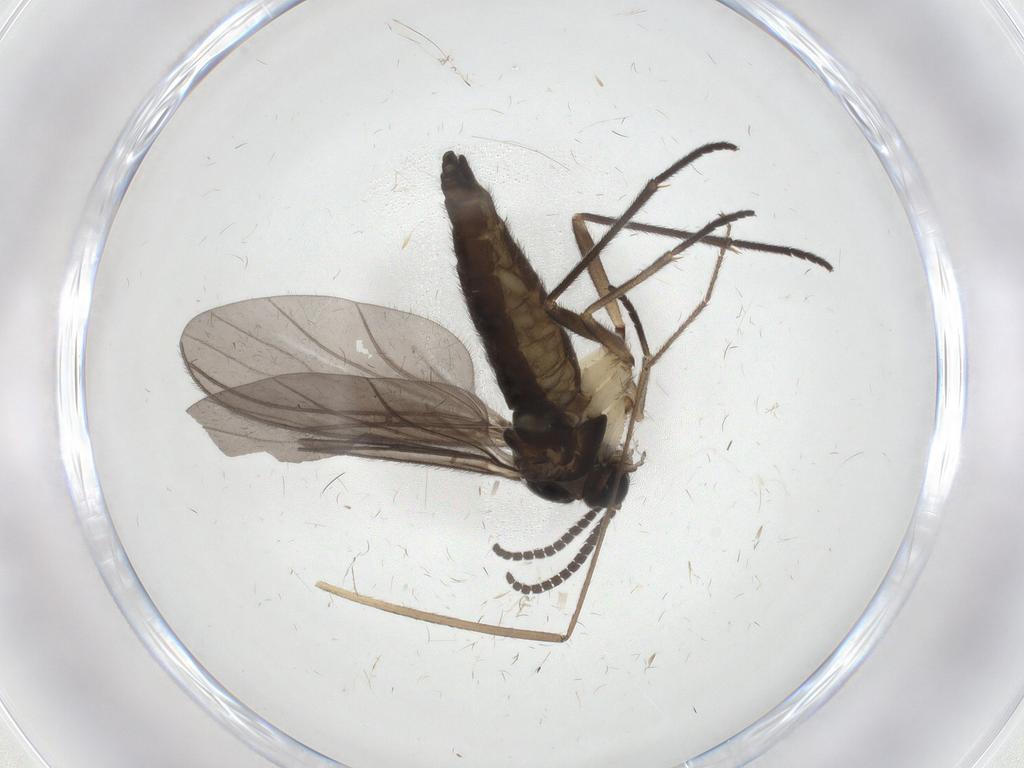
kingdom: Animalia
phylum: Arthropoda
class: Insecta
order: Diptera
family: Sciaridae
